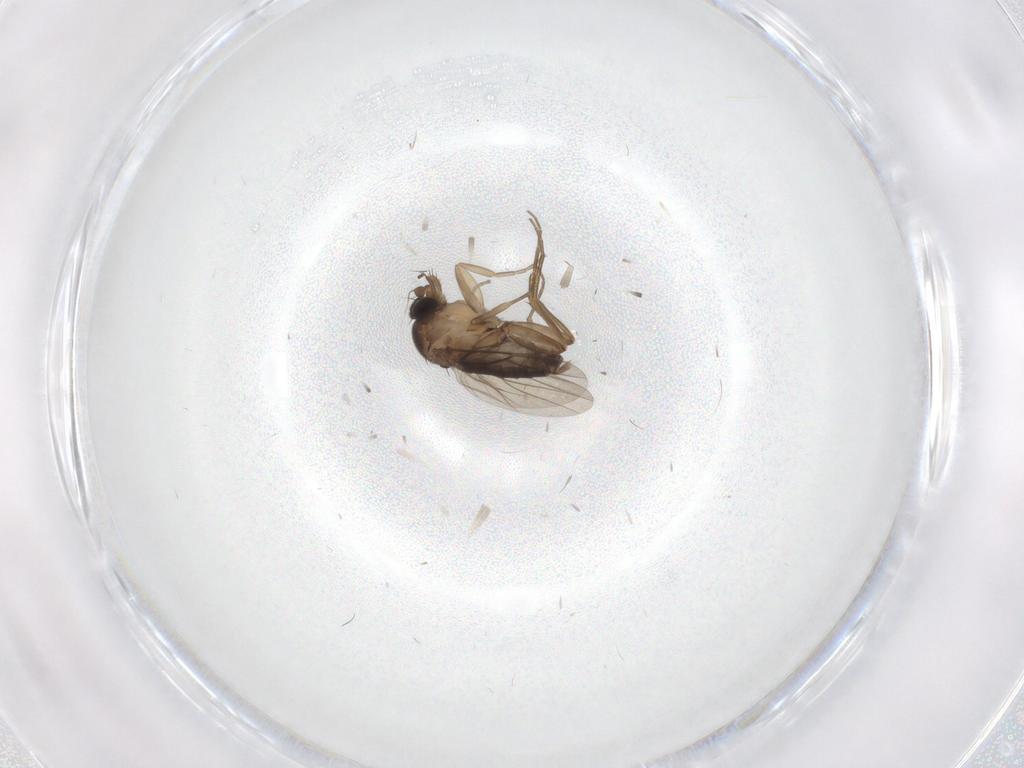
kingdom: Animalia
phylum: Arthropoda
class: Insecta
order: Diptera
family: Phoridae
